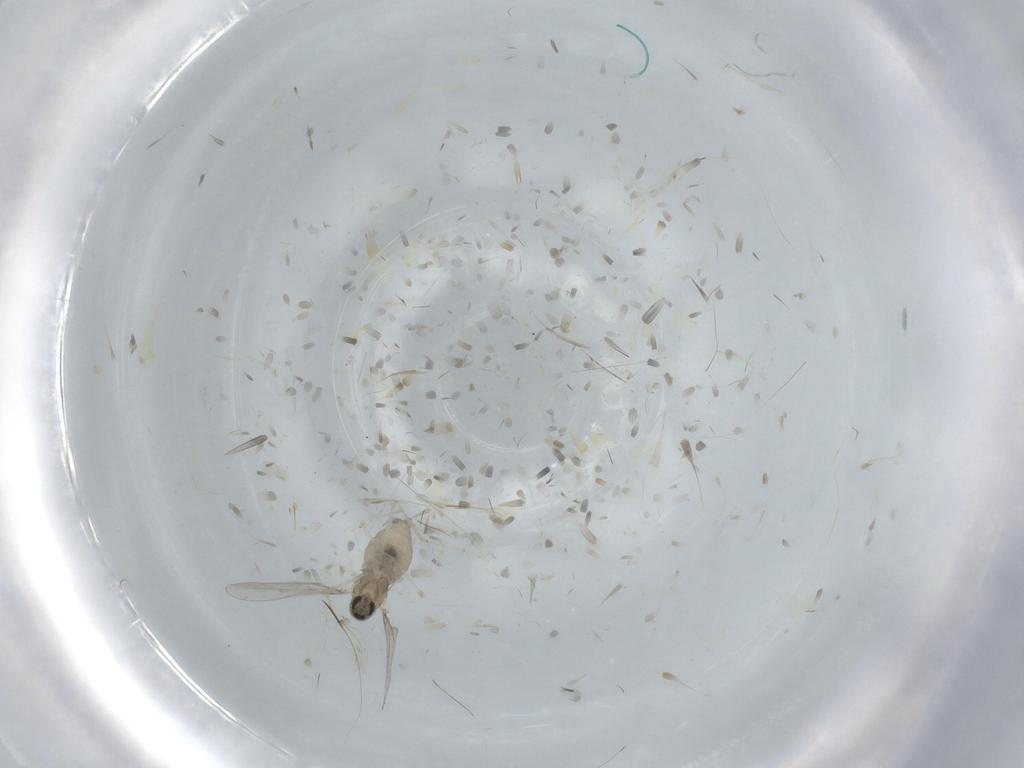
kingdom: Animalia
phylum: Arthropoda
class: Insecta
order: Diptera
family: Cecidomyiidae
